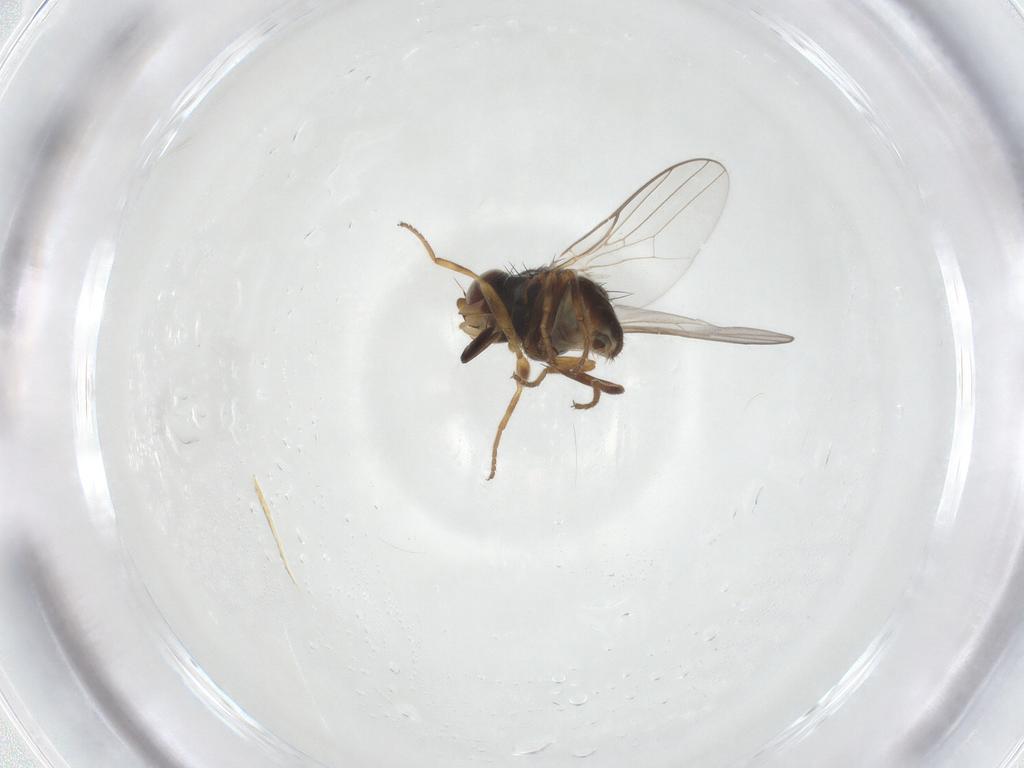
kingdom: Animalia
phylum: Arthropoda
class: Insecta
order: Diptera
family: Chloropidae
